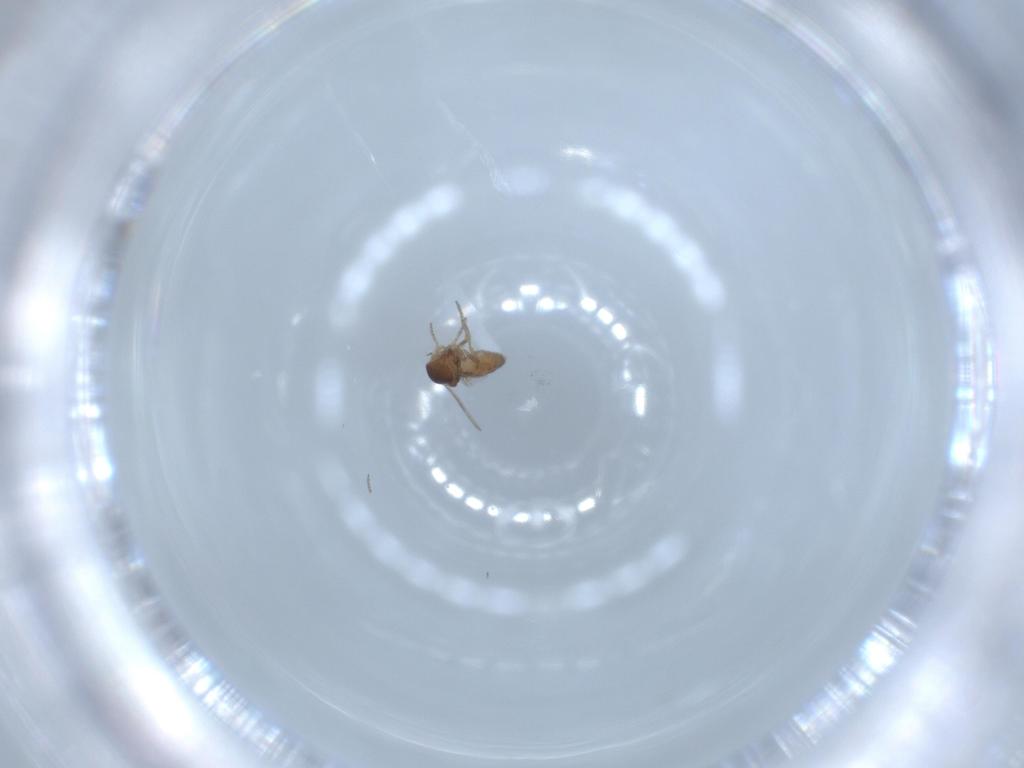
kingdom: Animalia
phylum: Arthropoda
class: Insecta
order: Diptera
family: Ceratopogonidae
